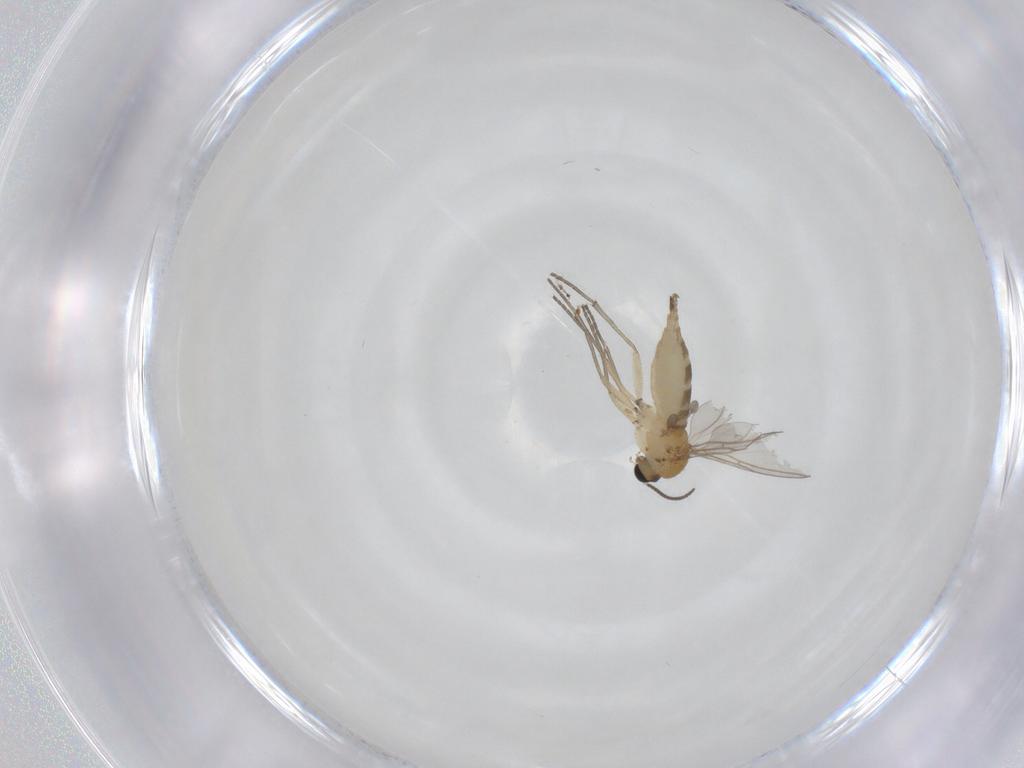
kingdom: Animalia
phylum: Arthropoda
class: Insecta
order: Diptera
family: Sciaridae
